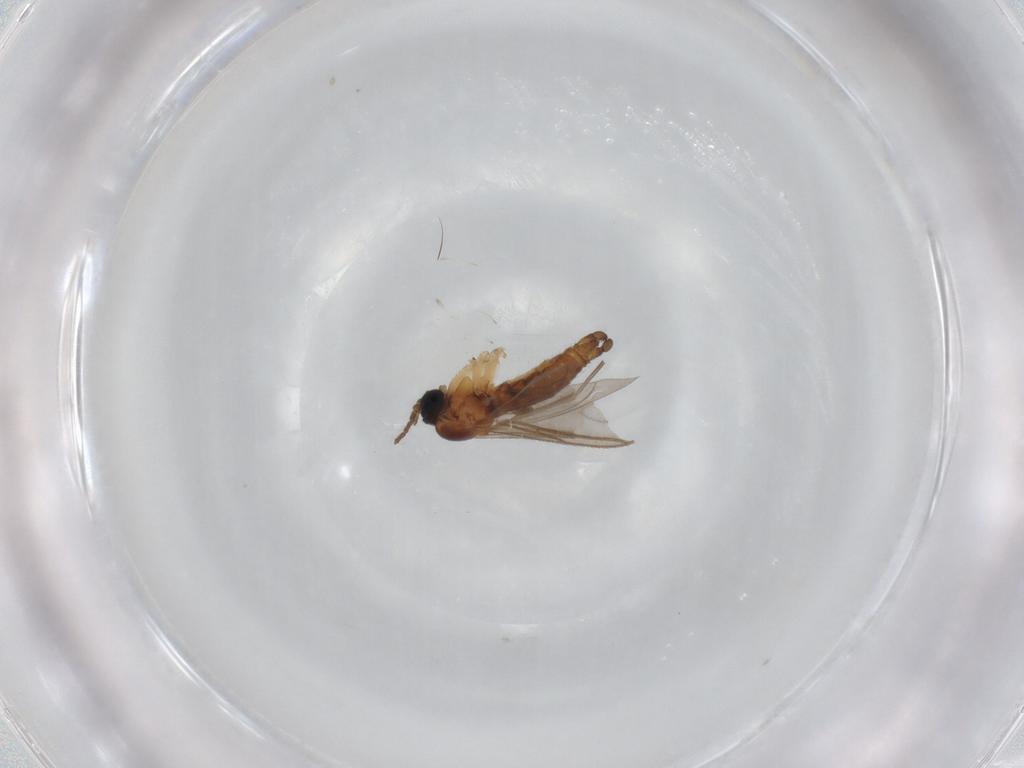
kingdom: Animalia
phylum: Arthropoda
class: Insecta
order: Diptera
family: Sciaridae
